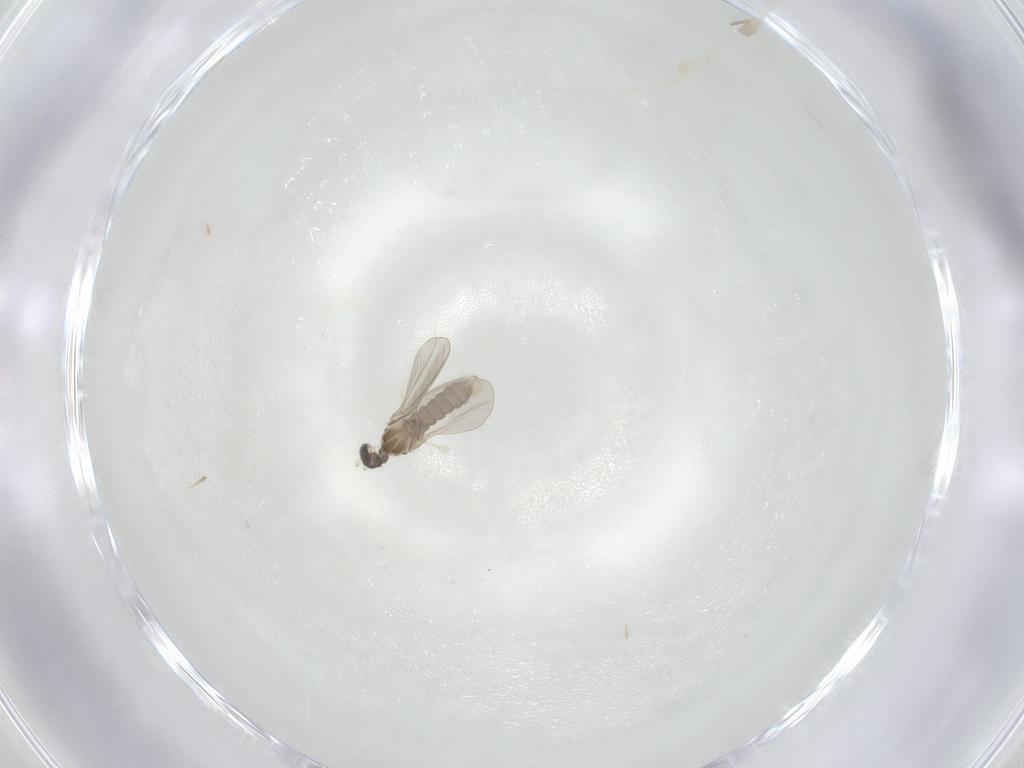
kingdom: Animalia
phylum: Arthropoda
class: Insecta
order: Diptera
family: Cecidomyiidae
